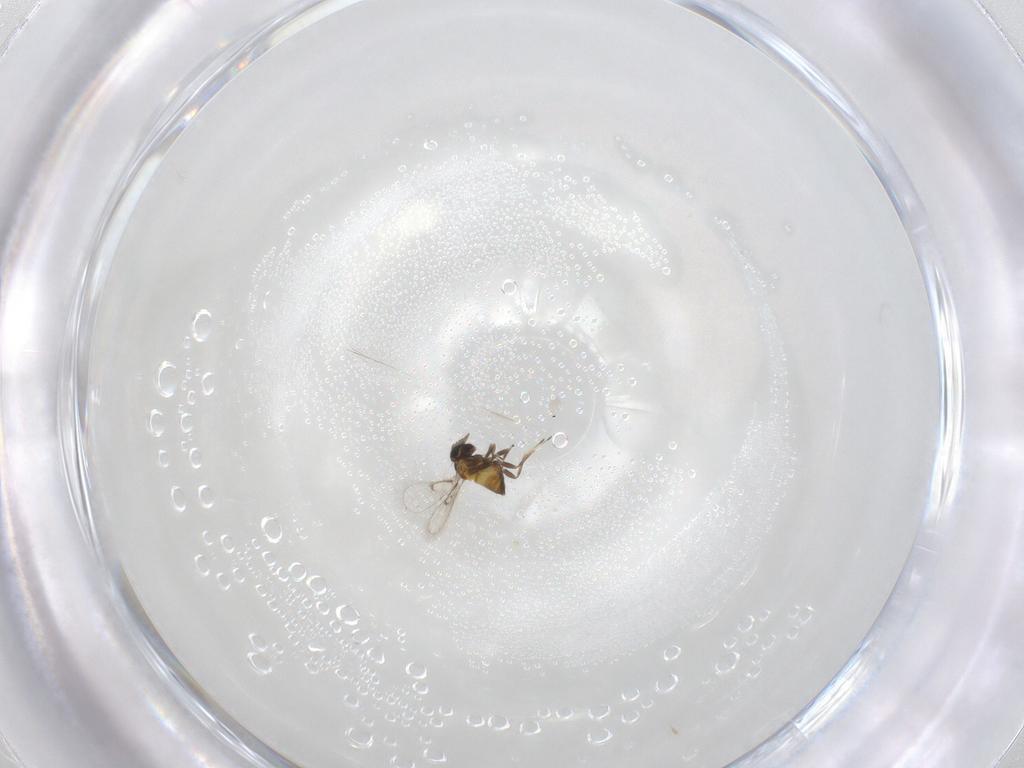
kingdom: Animalia
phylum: Arthropoda
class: Insecta
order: Hymenoptera
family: Trichogrammatidae
